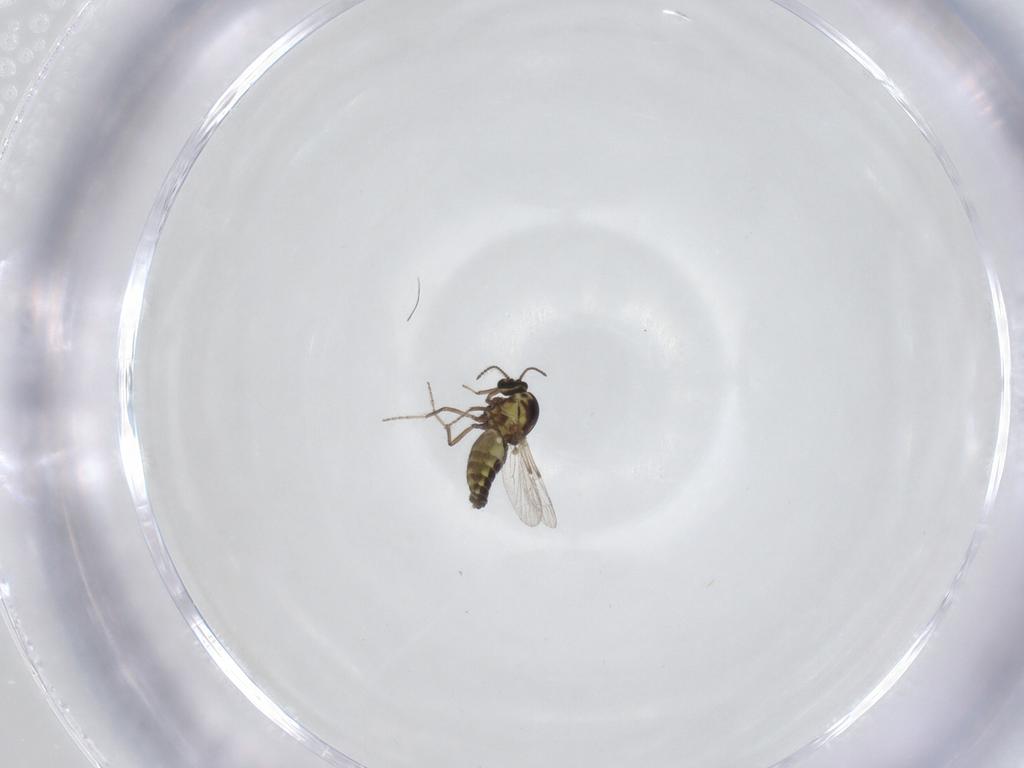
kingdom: Animalia
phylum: Arthropoda
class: Insecta
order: Diptera
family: Ceratopogonidae
